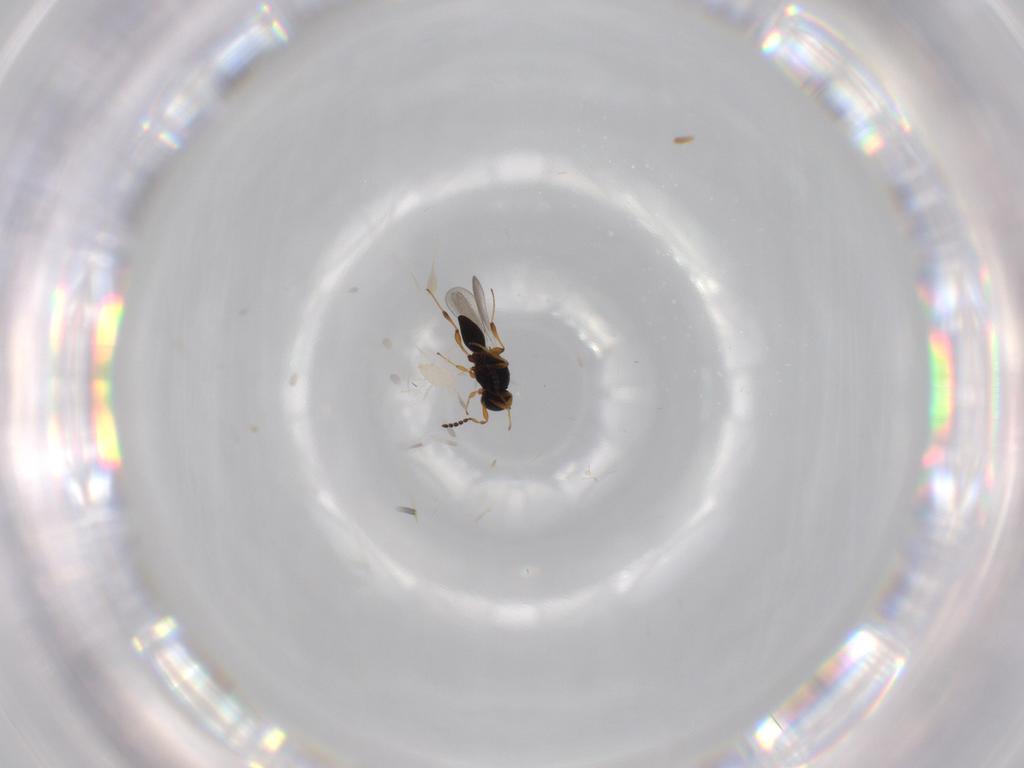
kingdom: Animalia
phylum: Arthropoda
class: Insecta
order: Hymenoptera
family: Platygastridae
